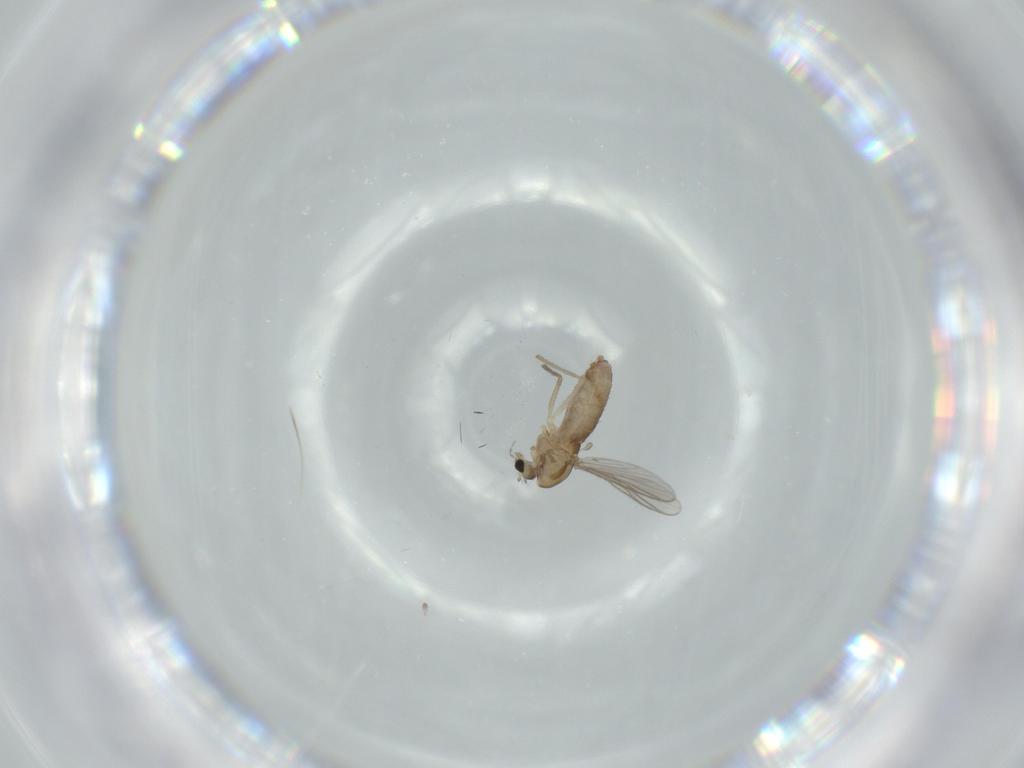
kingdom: Animalia
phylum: Arthropoda
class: Insecta
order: Diptera
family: Chironomidae
